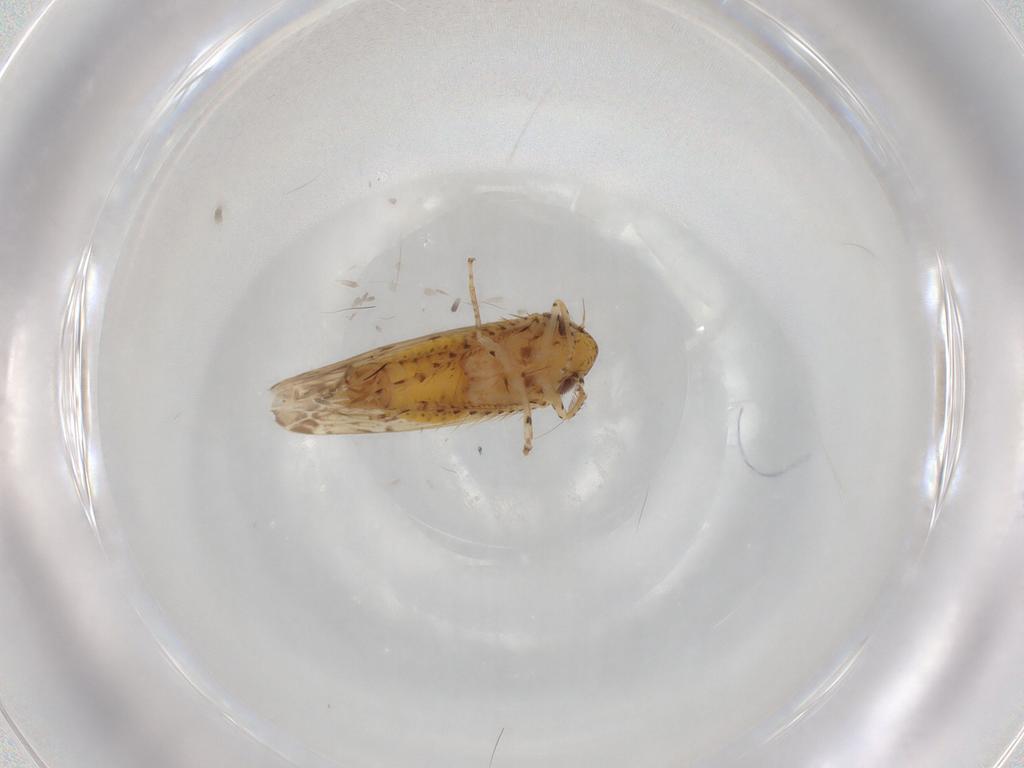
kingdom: Animalia
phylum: Arthropoda
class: Insecta
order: Hemiptera
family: Cicadellidae
